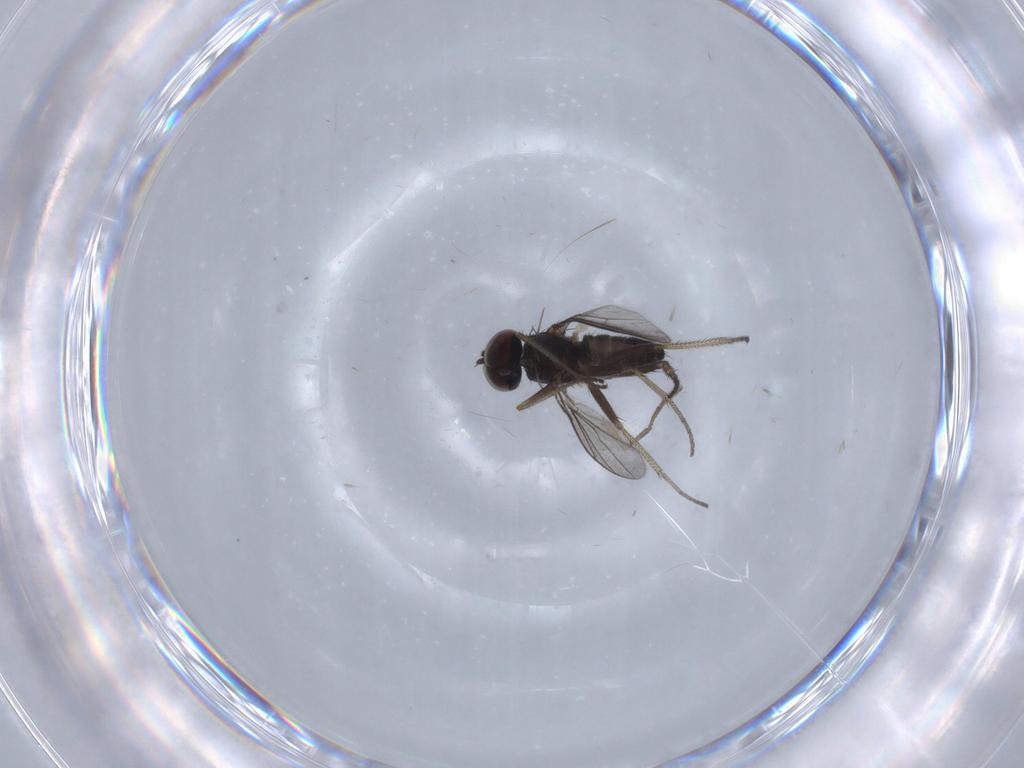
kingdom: Animalia
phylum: Arthropoda
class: Insecta
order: Diptera
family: Chironomidae
